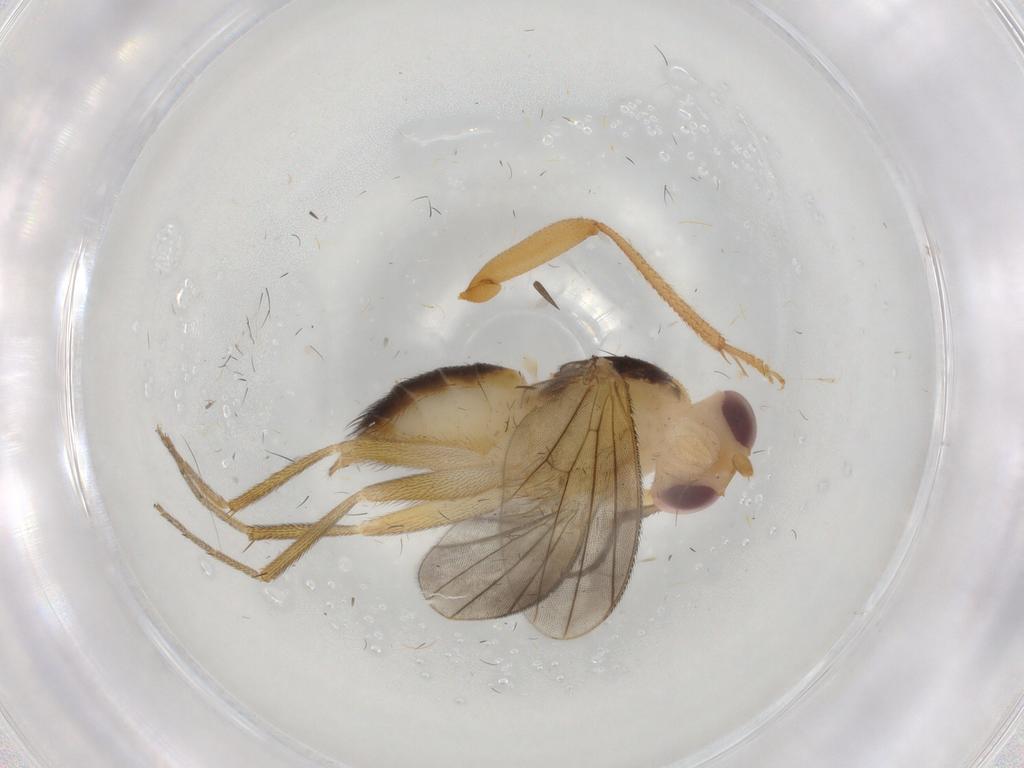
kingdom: Animalia
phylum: Arthropoda
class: Insecta
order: Diptera
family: Agromyzidae
